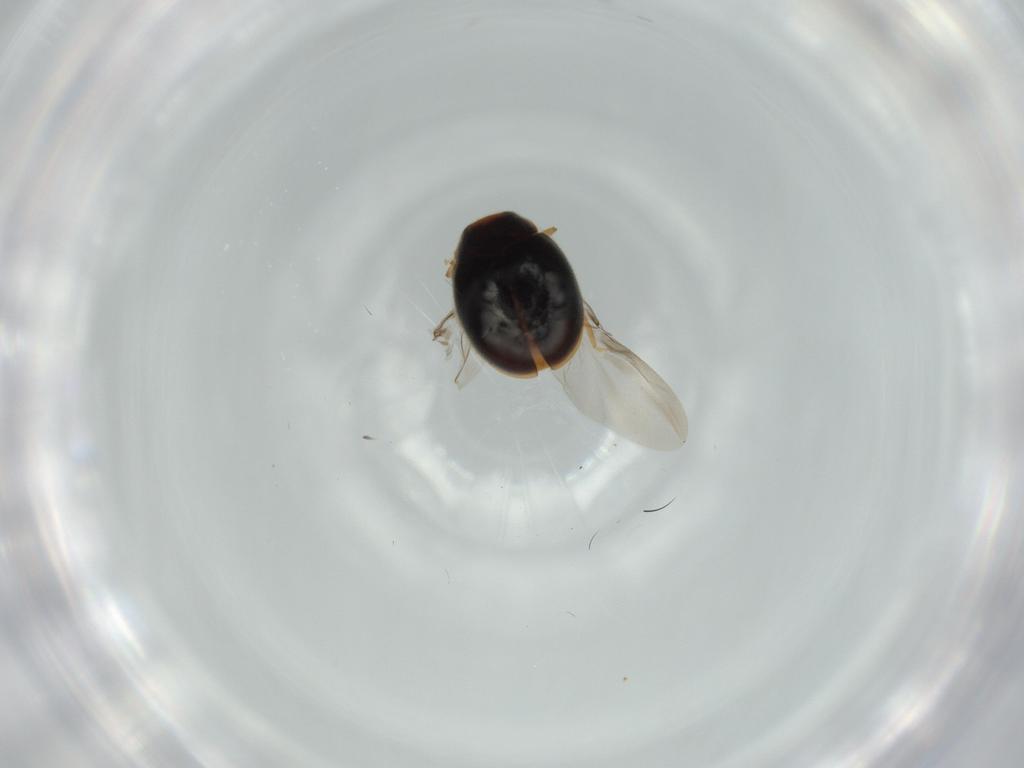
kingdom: Animalia
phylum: Arthropoda
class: Insecta
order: Coleoptera
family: Coccinellidae
